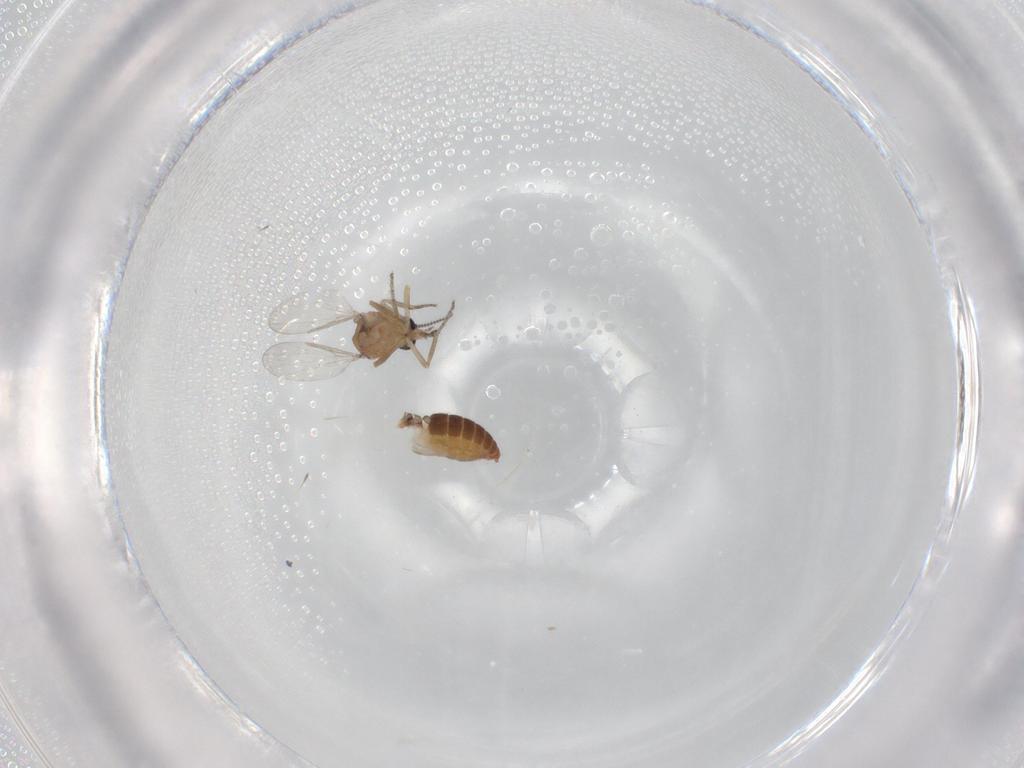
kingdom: Animalia
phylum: Arthropoda
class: Insecta
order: Diptera
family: Ceratopogonidae
